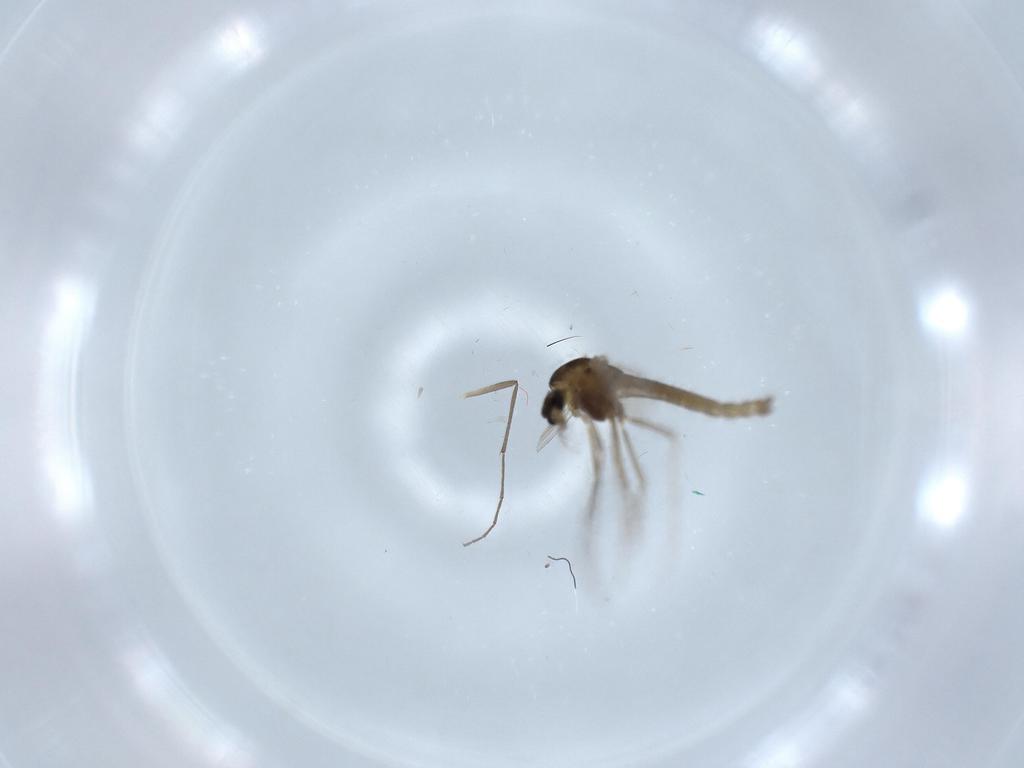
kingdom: Animalia
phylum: Arthropoda
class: Insecta
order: Diptera
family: Chironomidae
